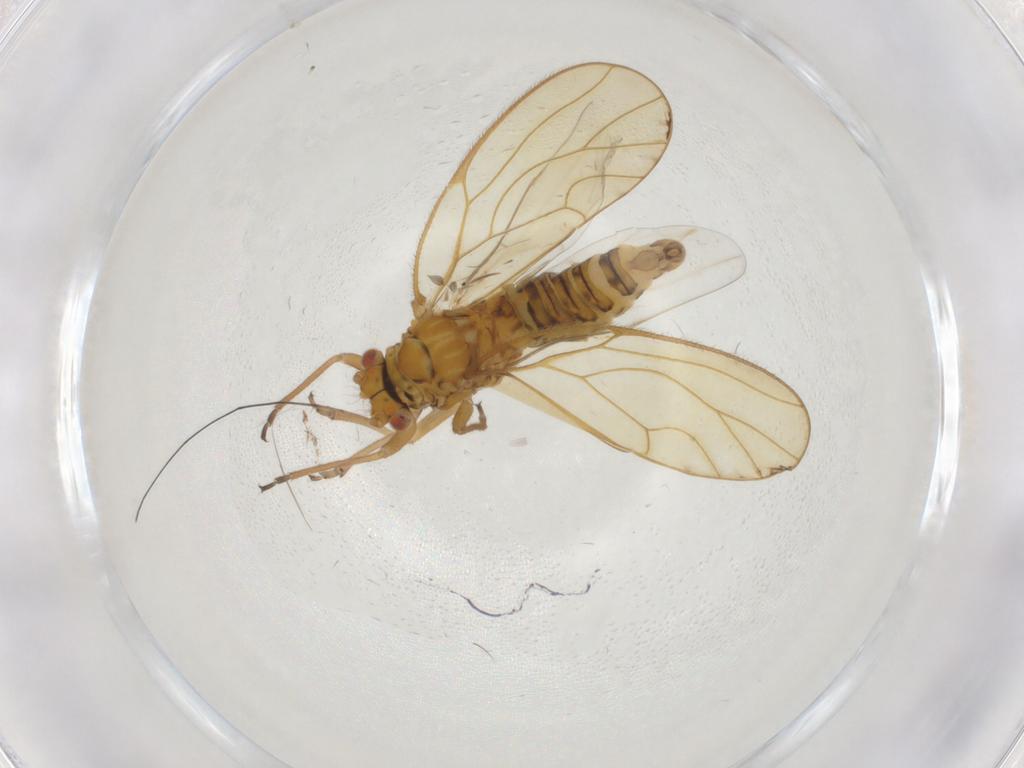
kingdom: Animalia
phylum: Arthropoda
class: Insecta
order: Hemiptera
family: Psyllidae
